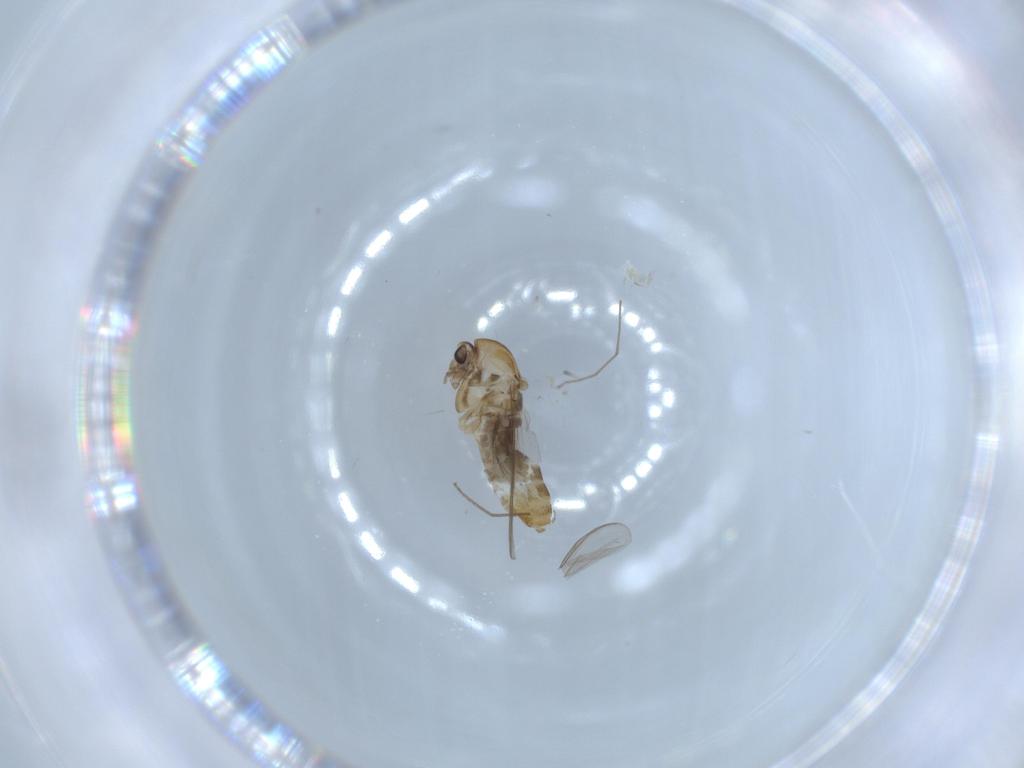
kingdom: Animalia
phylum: Arthropoda
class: Insecta
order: Diptera
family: Chironomidae
